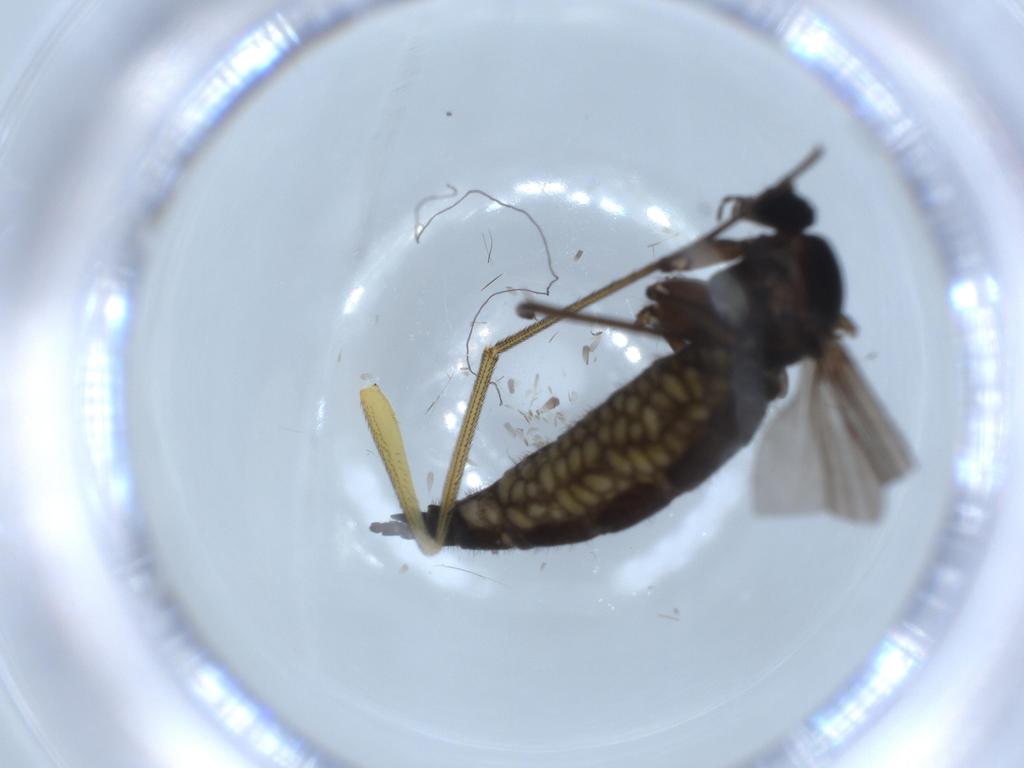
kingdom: Animalia
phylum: Arthropoda
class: Insecta
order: Diptera
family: Sciaridae
